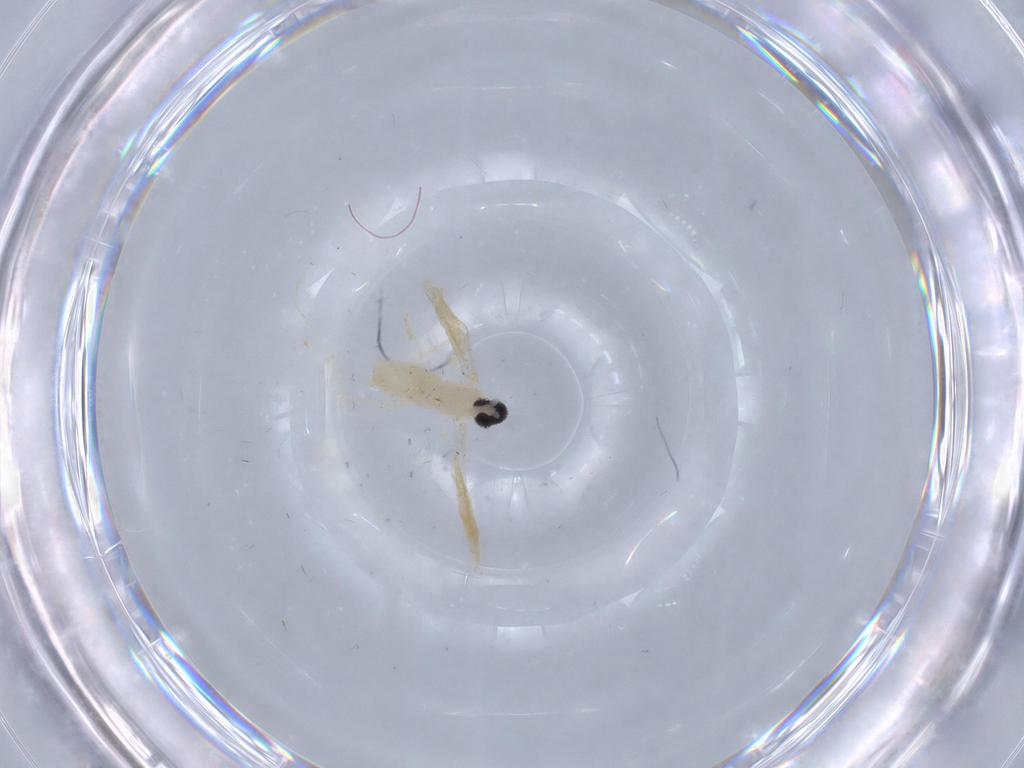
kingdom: Animalia
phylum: Arthropoda
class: Insecta
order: Diptera
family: Cecidomyiidae
